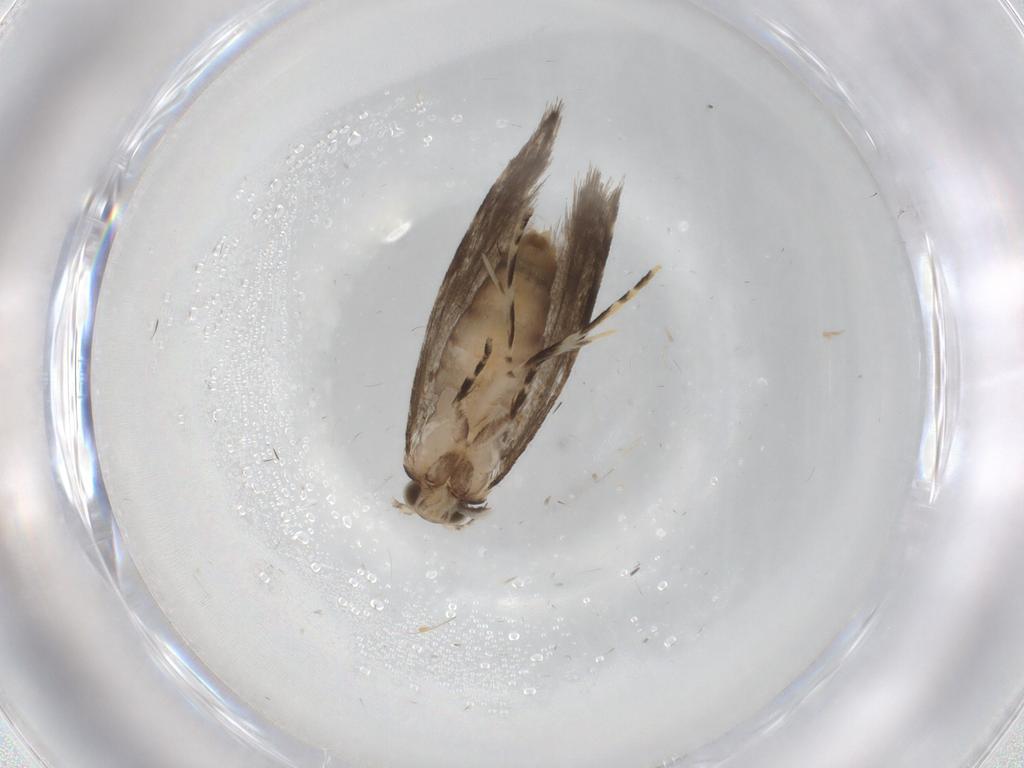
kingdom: Animalia
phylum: Arthropoda
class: Insecta
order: Lepidoptera
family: Tineidae
